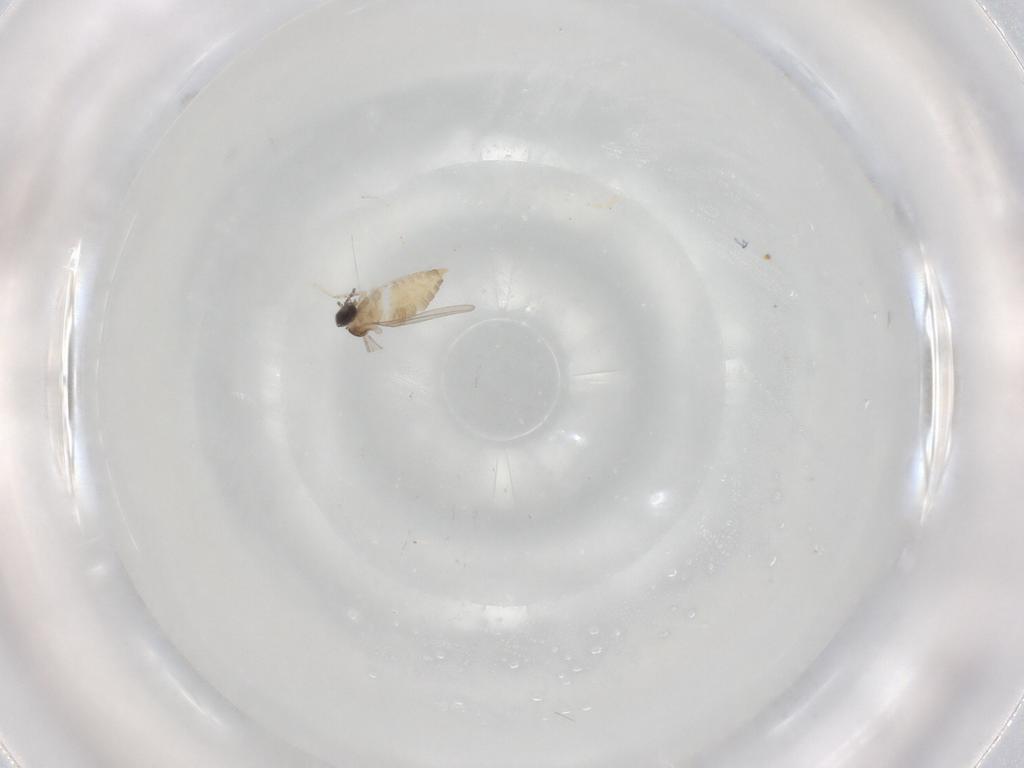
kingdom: Animalia
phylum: Arthropoda
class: Insecta
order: Diptera
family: Cecidomyiidae
